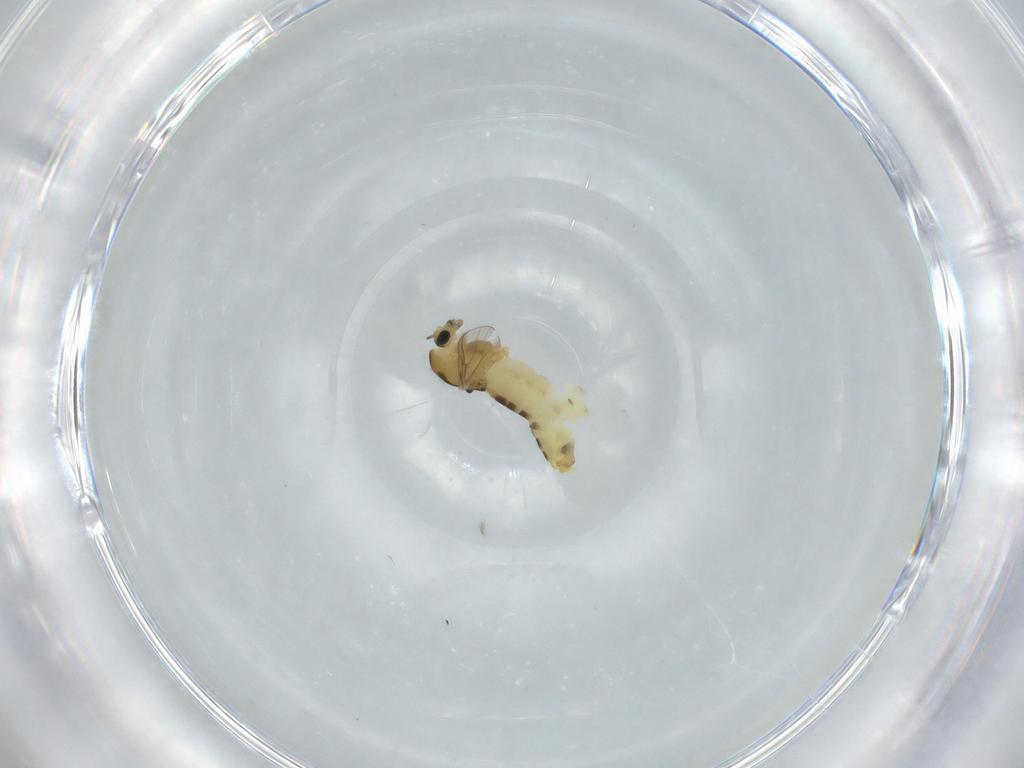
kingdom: Animalia
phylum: Arthropoda
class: Insecta
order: Diptera
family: Chironomidae
